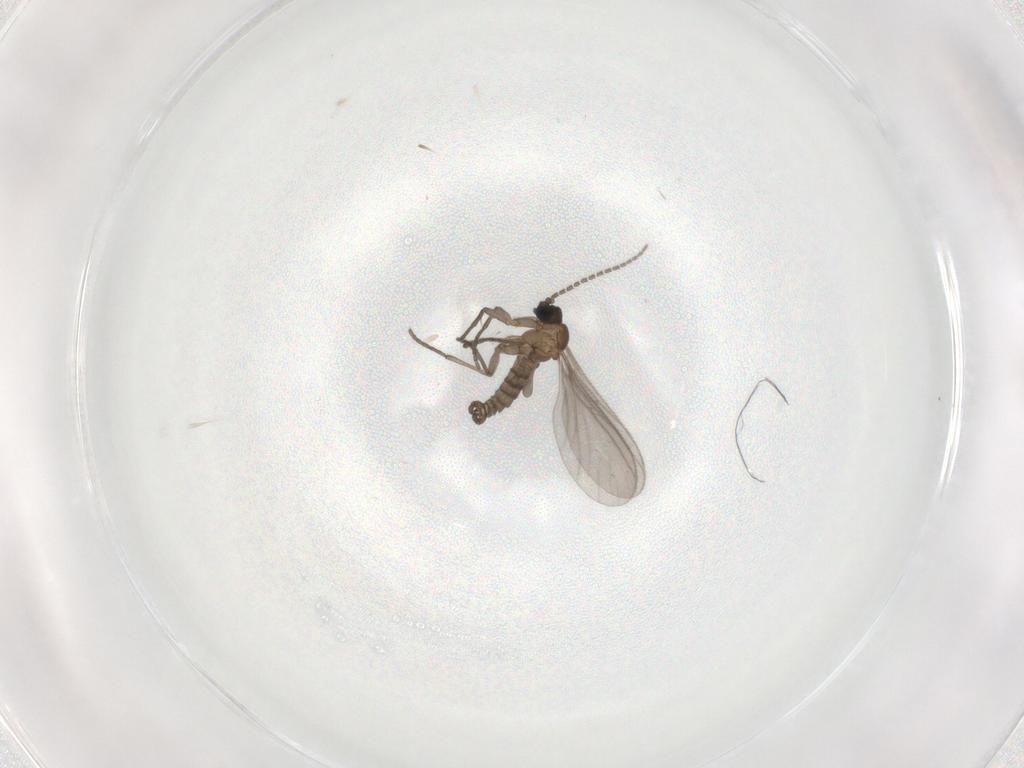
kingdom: Animalia
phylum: Arthropoda
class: Insecta
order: Diptera
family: Sciaridae
